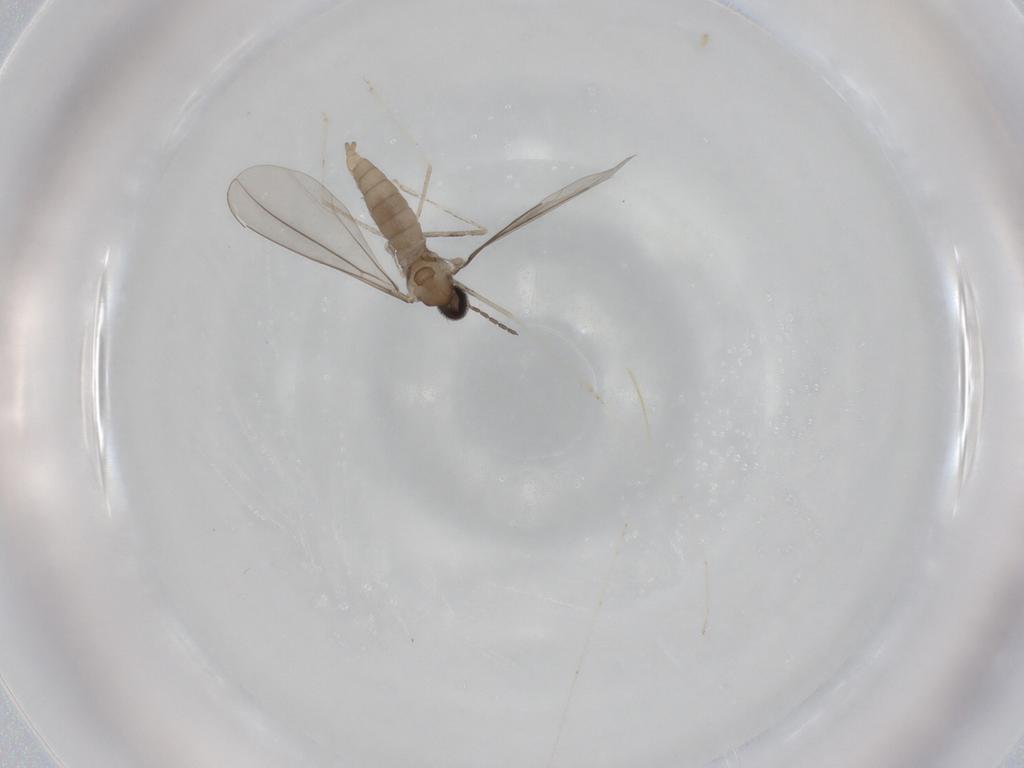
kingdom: Animalia
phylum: Arthropoda
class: Insecta
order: Diptera
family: Cecidomyiidae
